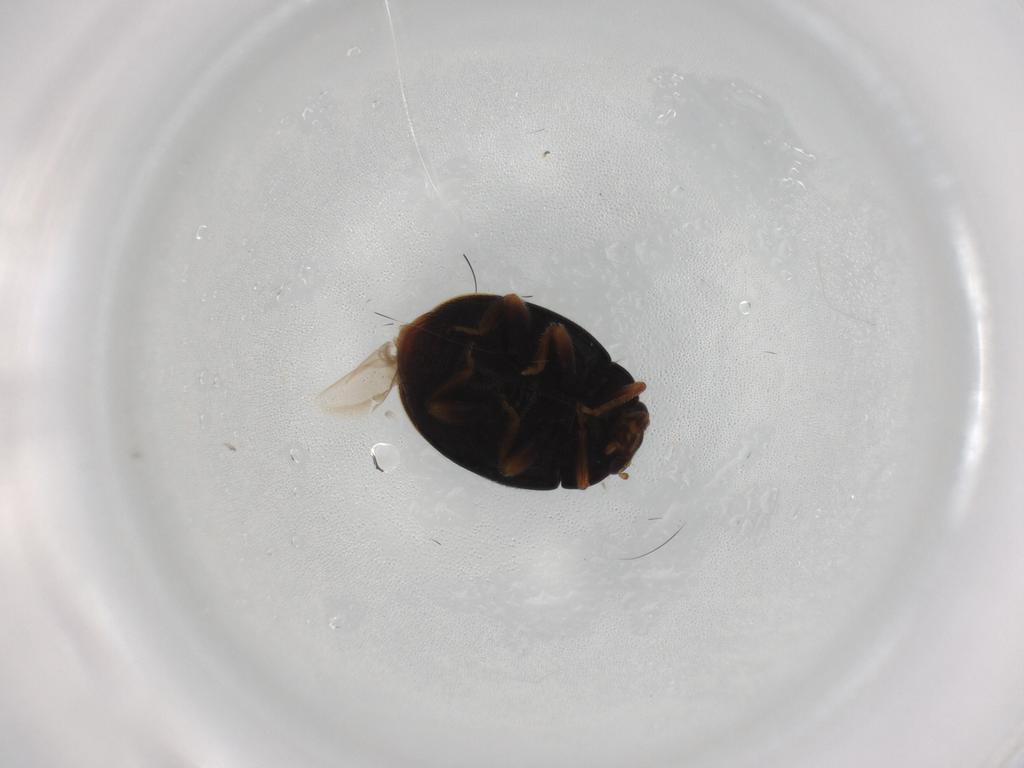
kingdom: Animalia
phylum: Arthropoda
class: Insecta
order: Coleoptera
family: Coccinellidae
